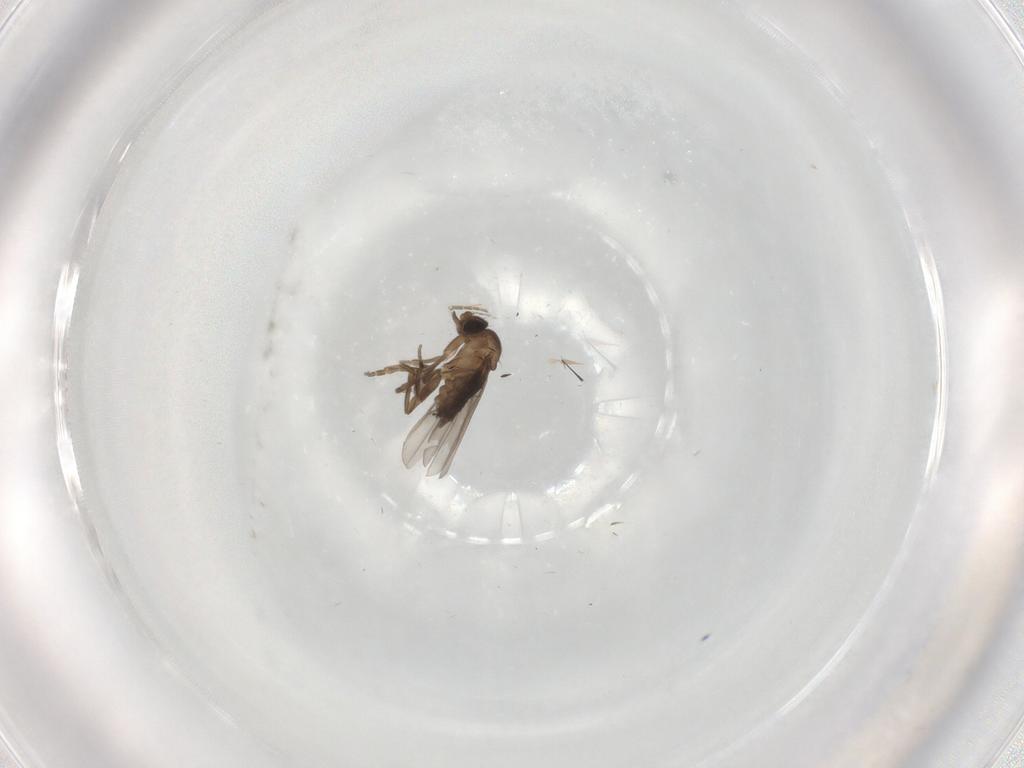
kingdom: Animalia
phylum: Arthropoda
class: Insecta
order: Diptera
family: Phoridae
